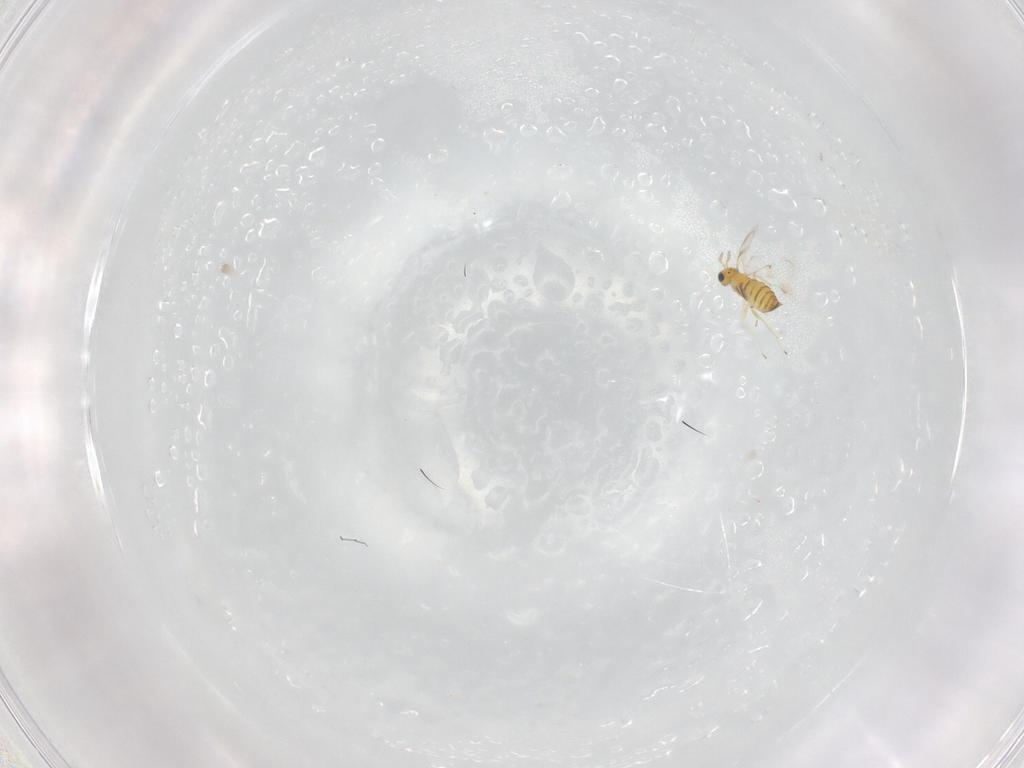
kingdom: Animalia
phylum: Arthropoda
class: Insecta
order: Hymenoptera
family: Trichogrammatidae
